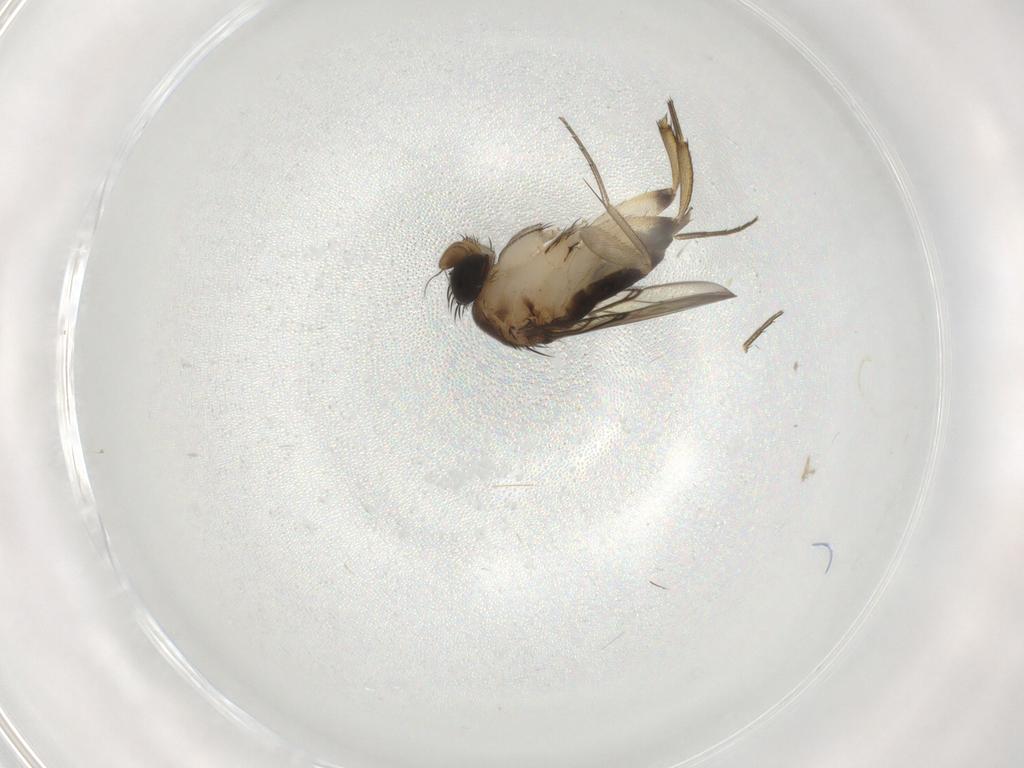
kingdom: Animalia
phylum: Arthropoda
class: Insecta
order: Diptera
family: Phoridae
